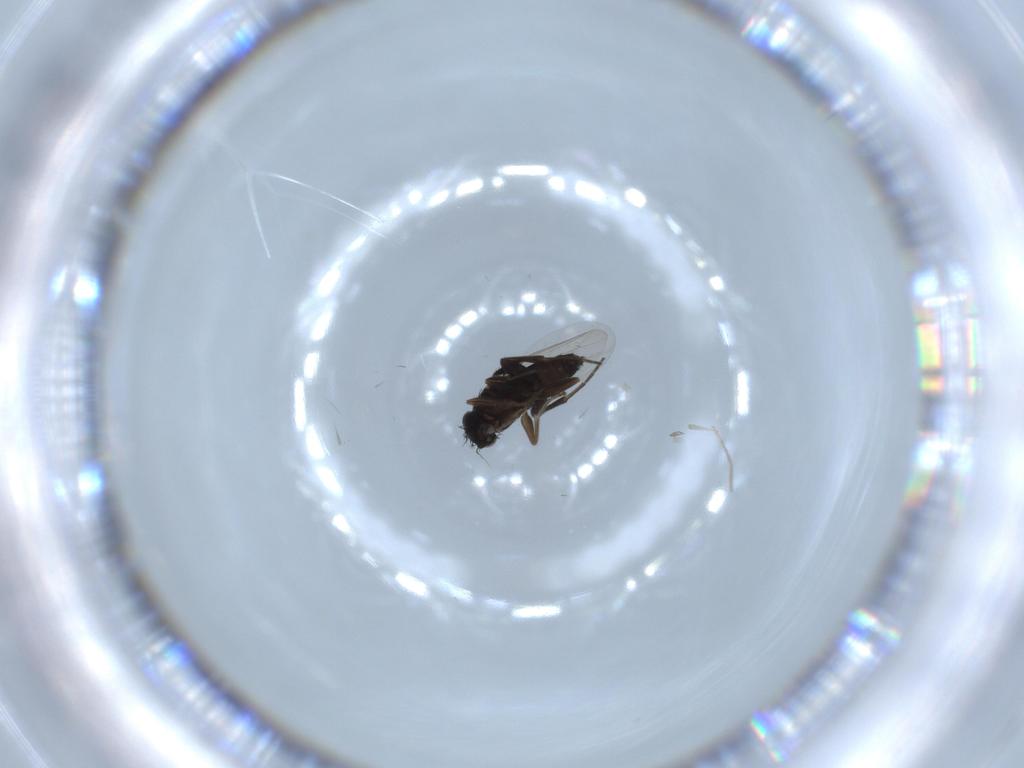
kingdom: Animalia
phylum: Arthropoda
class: Insecta
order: Diptera
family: Phoridae
